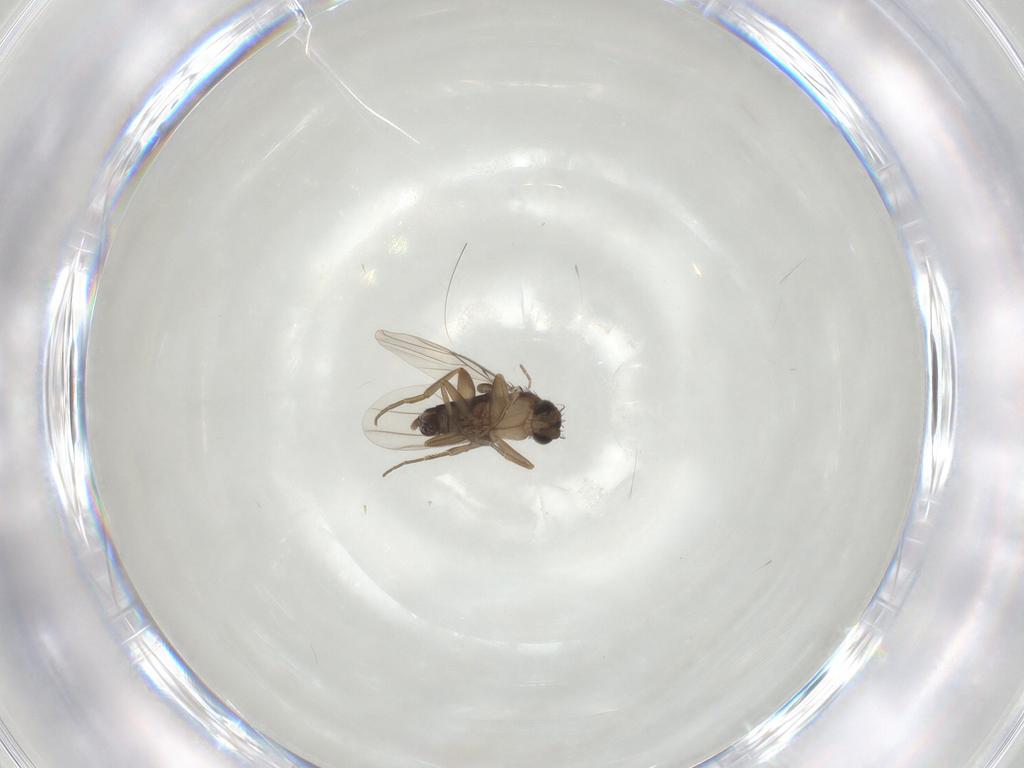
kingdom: Animalia
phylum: Arthropoda
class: Insecta
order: Diptera
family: Phoridae
